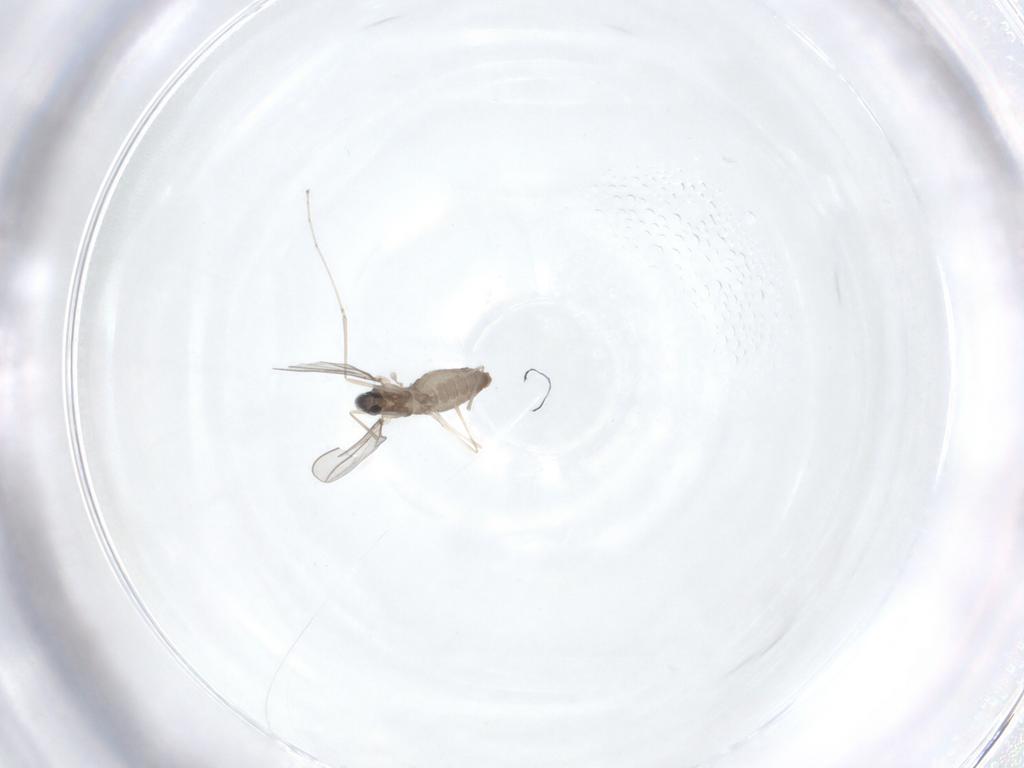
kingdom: Animalia
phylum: Arthropoda
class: Insecta
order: Diptera
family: Cecidomyiidae
